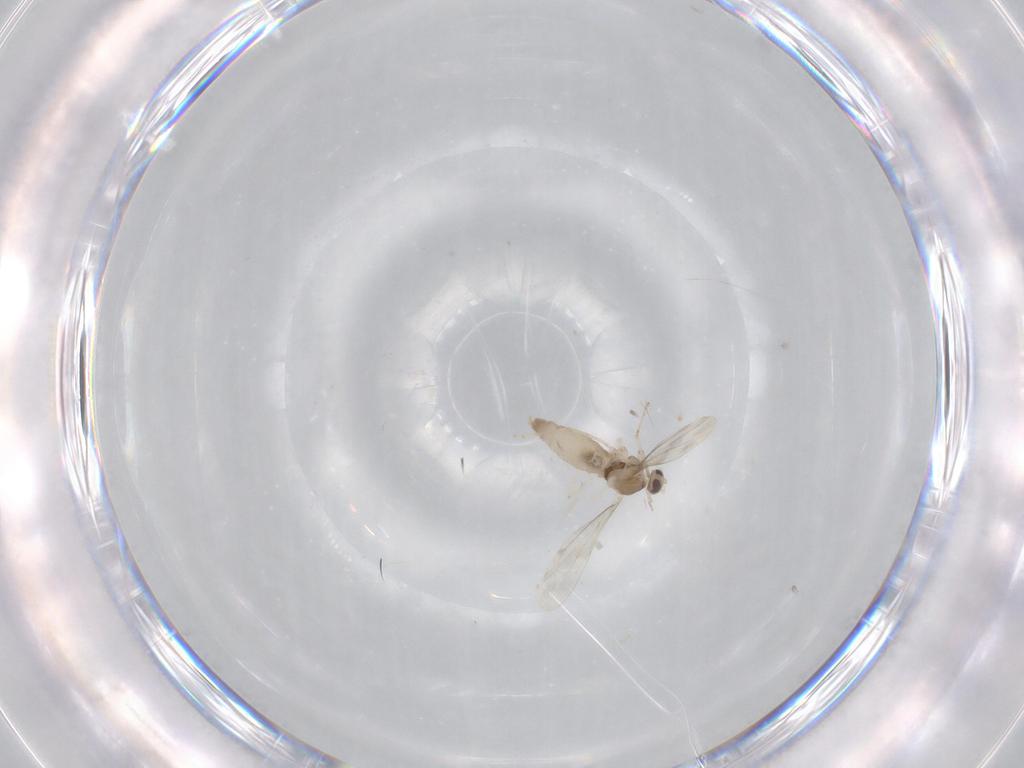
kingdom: Animalia
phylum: Arthropoda
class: Insecta
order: Diptera
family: Cecidomyiidae
